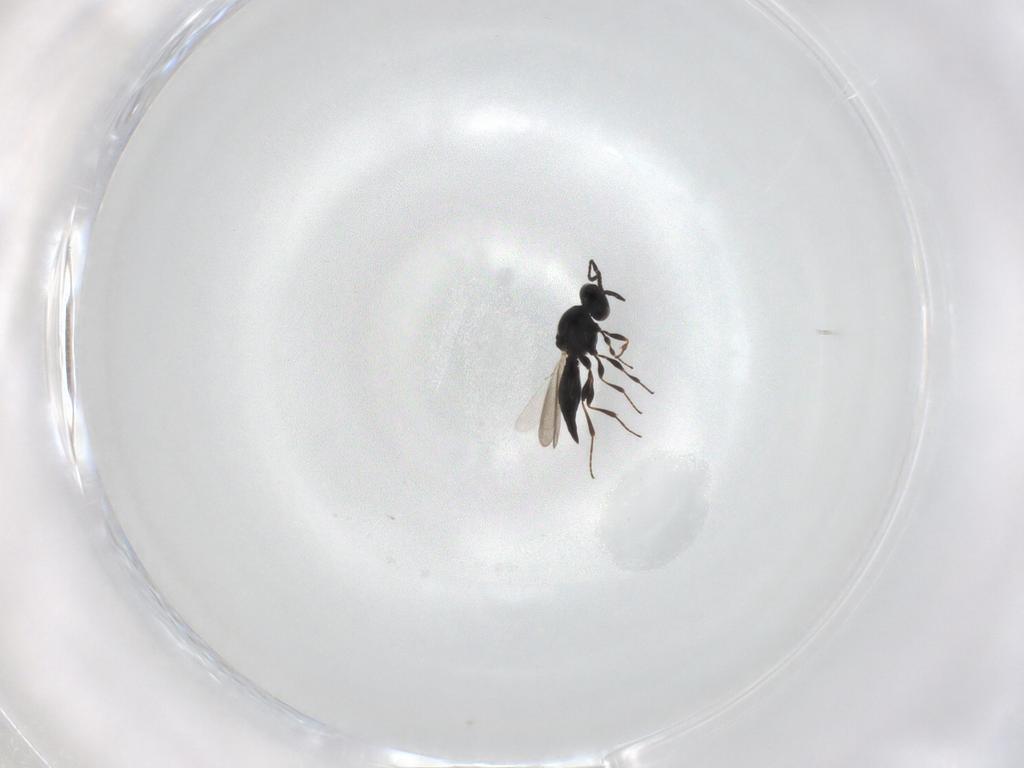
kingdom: Animalia
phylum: Arthropoda
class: Insecta
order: Hymenoptera
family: Platygastridae
